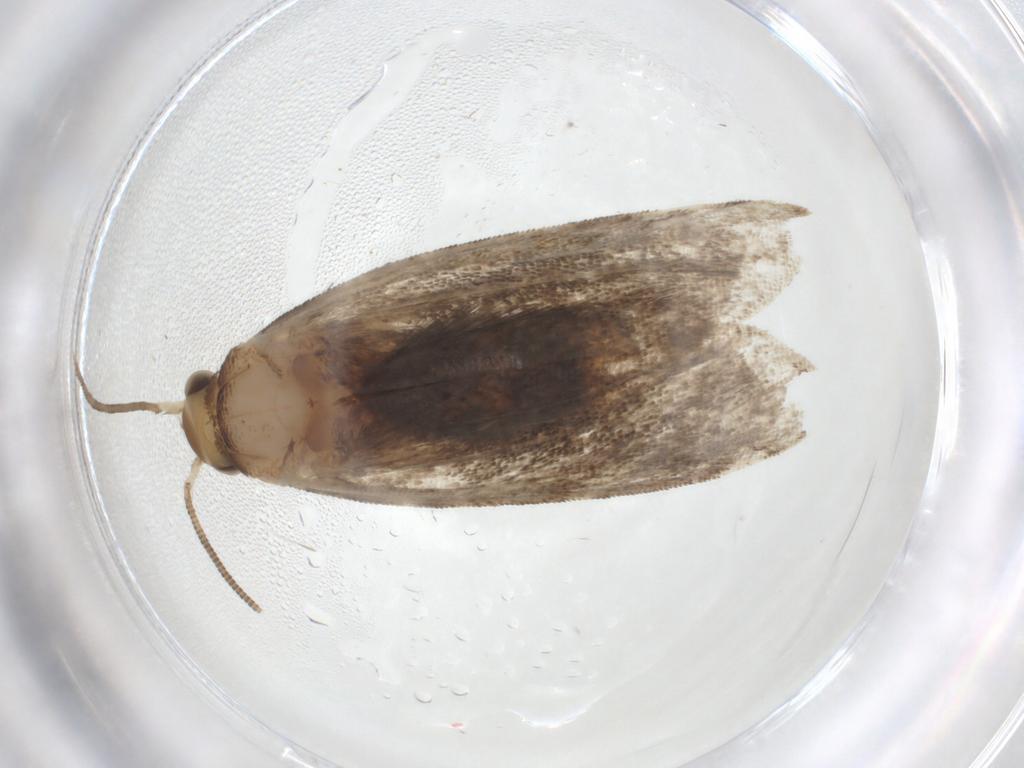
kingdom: Animalia
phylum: Arthropoda
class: Insecta
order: Lepidoptera
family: Dryadaulidae
